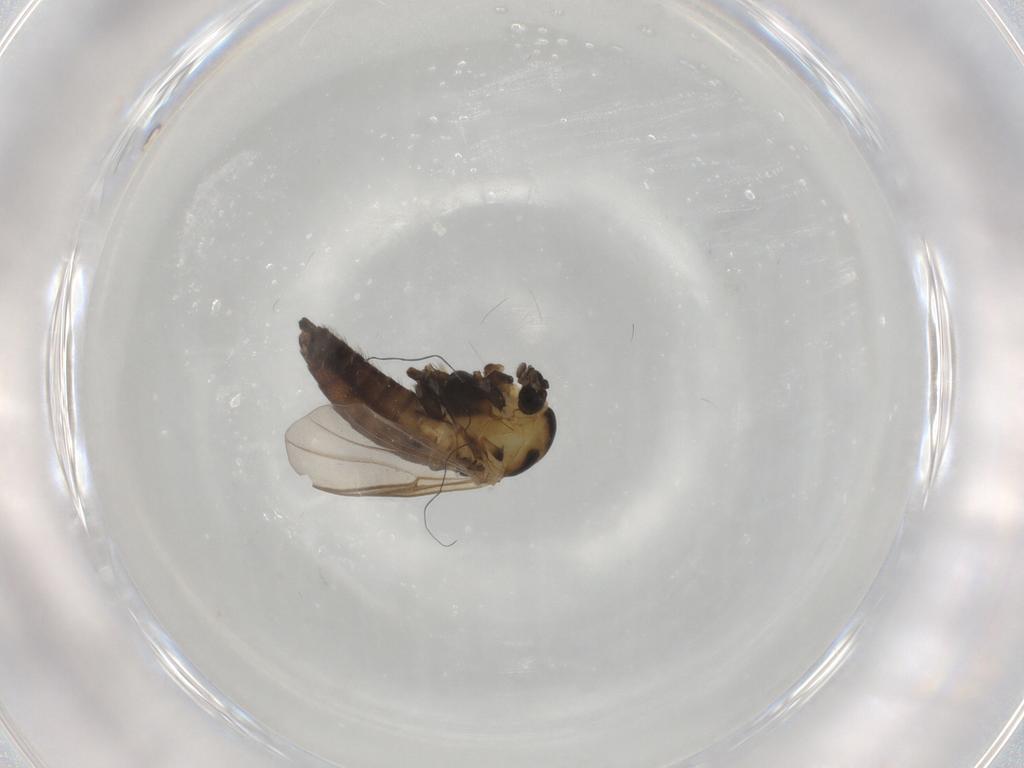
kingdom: Animalia
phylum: Arthropoda
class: Insecta
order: Diptera
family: Chironomidae
